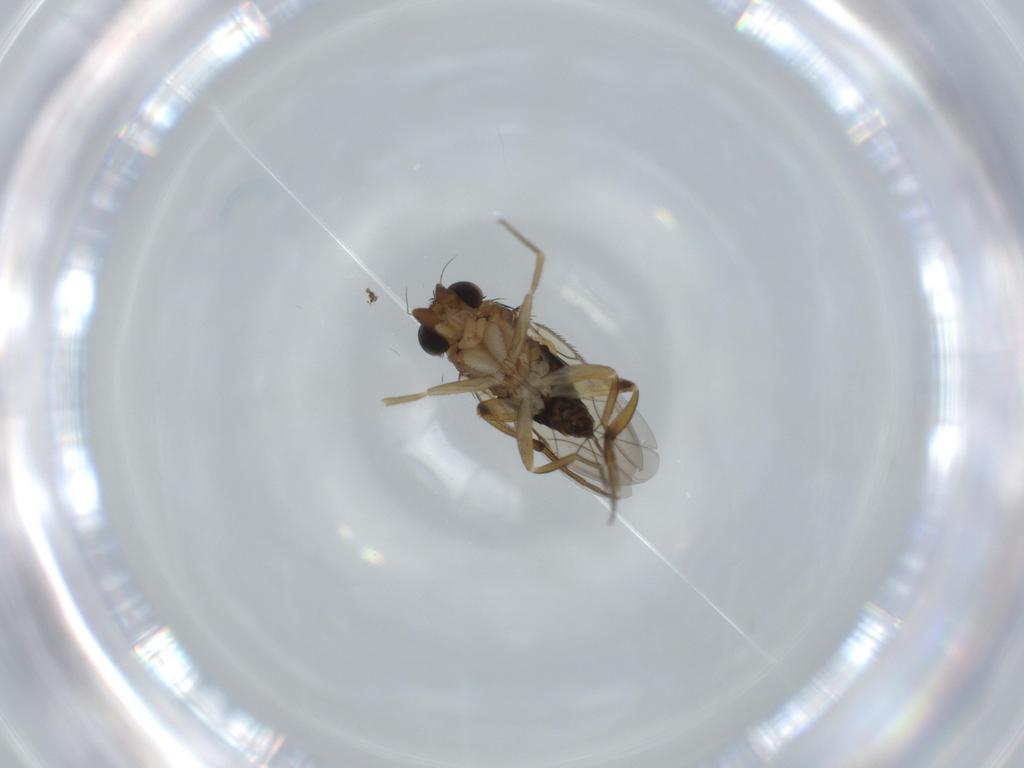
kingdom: Animalia
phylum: Arthropoda
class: Insecta
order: Diptera
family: Phoridae
